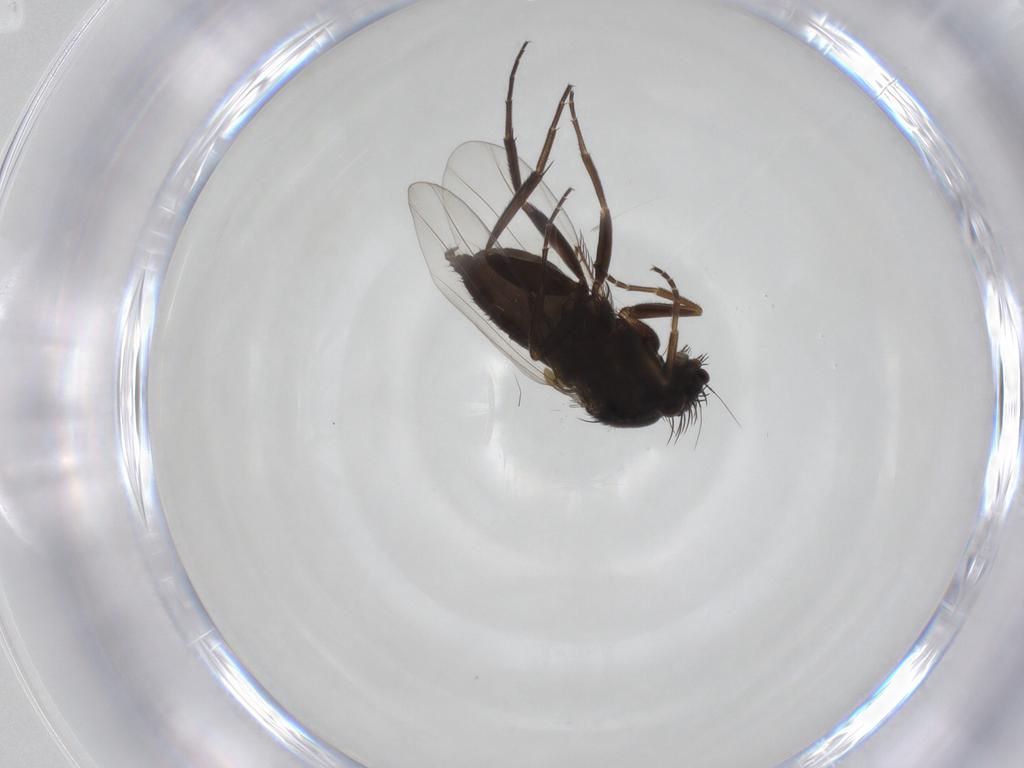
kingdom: Animalia
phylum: Arthropoda
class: Insecta
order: Diptera
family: Phoridae
